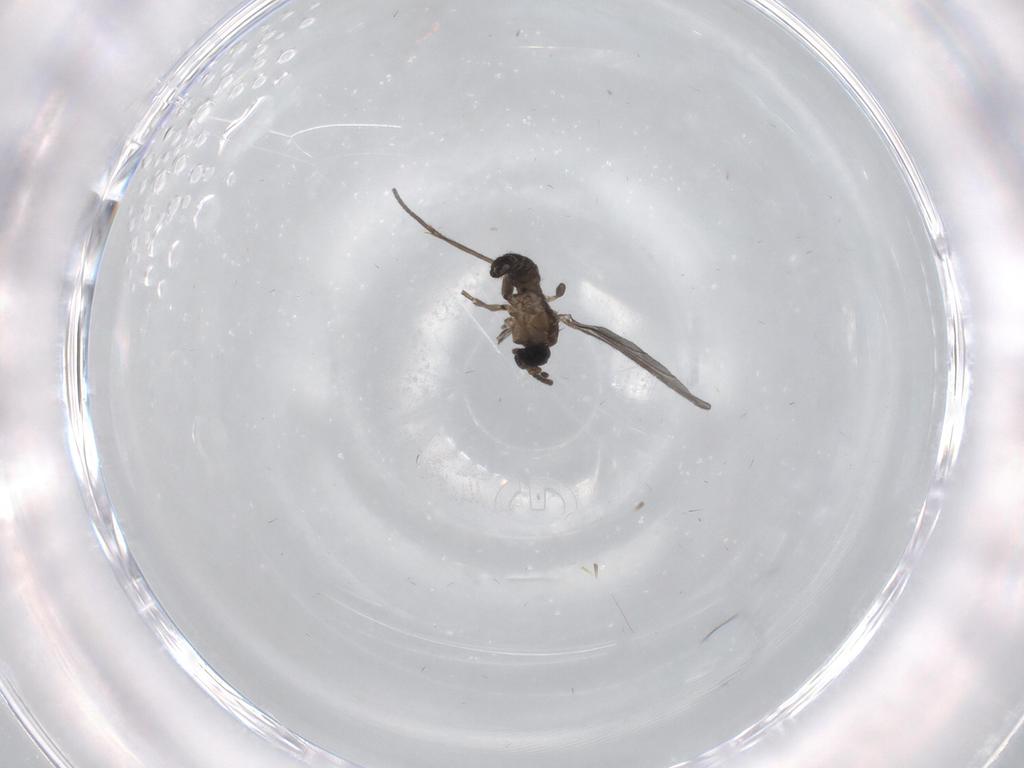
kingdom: Animalia
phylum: Arthropoda
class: Insecta
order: Diptera
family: Sciaridae
